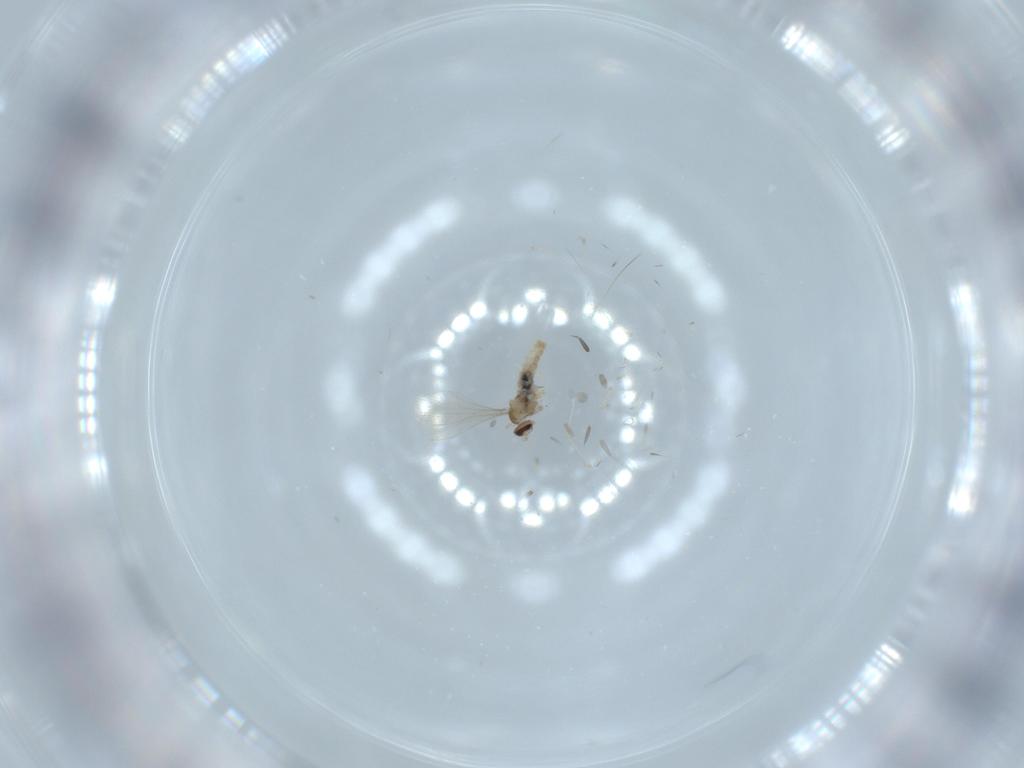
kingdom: Animalia
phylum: Arthropoda
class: Insecta
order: Diptera
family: Cecidomyiidae
